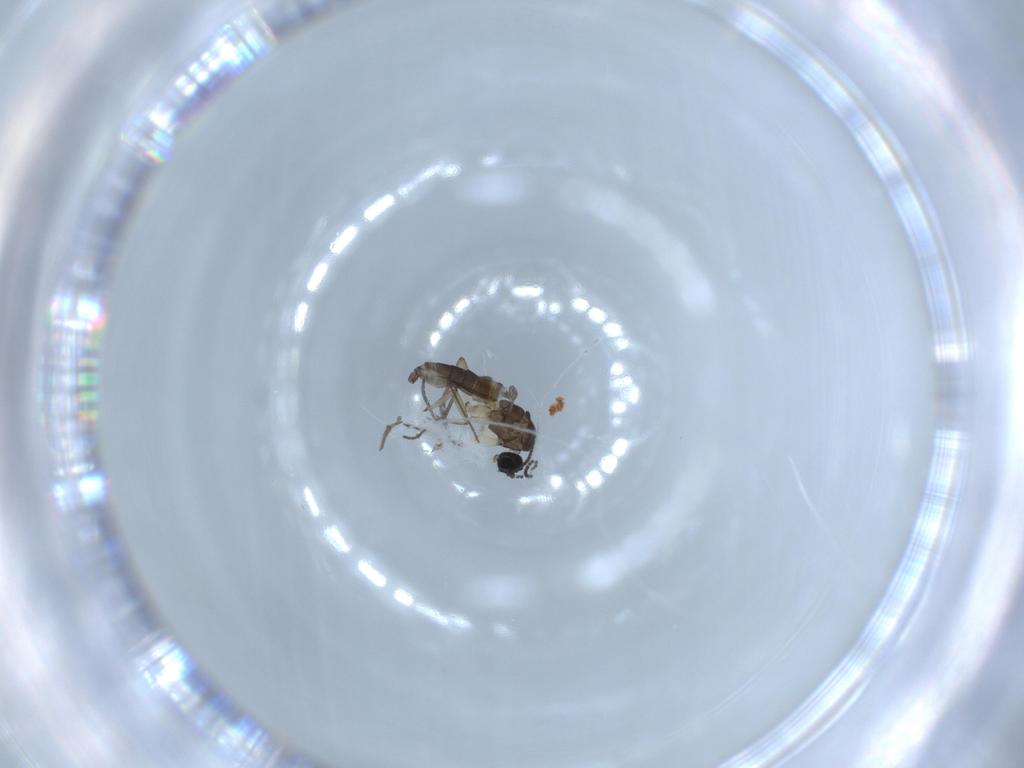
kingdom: Animalia
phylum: Arthropoda
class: Insecta
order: Diptera
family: Sciaridae
